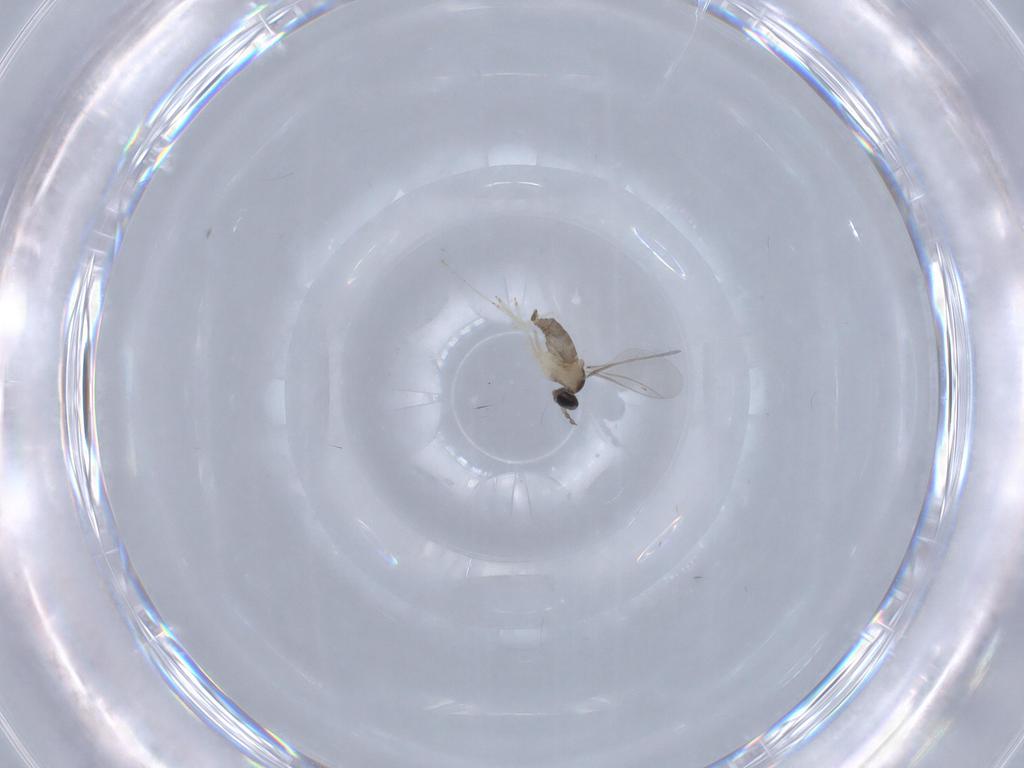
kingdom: Animalia
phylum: Arthropoda
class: Insecta
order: Diptera
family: Cecidomyiidae
